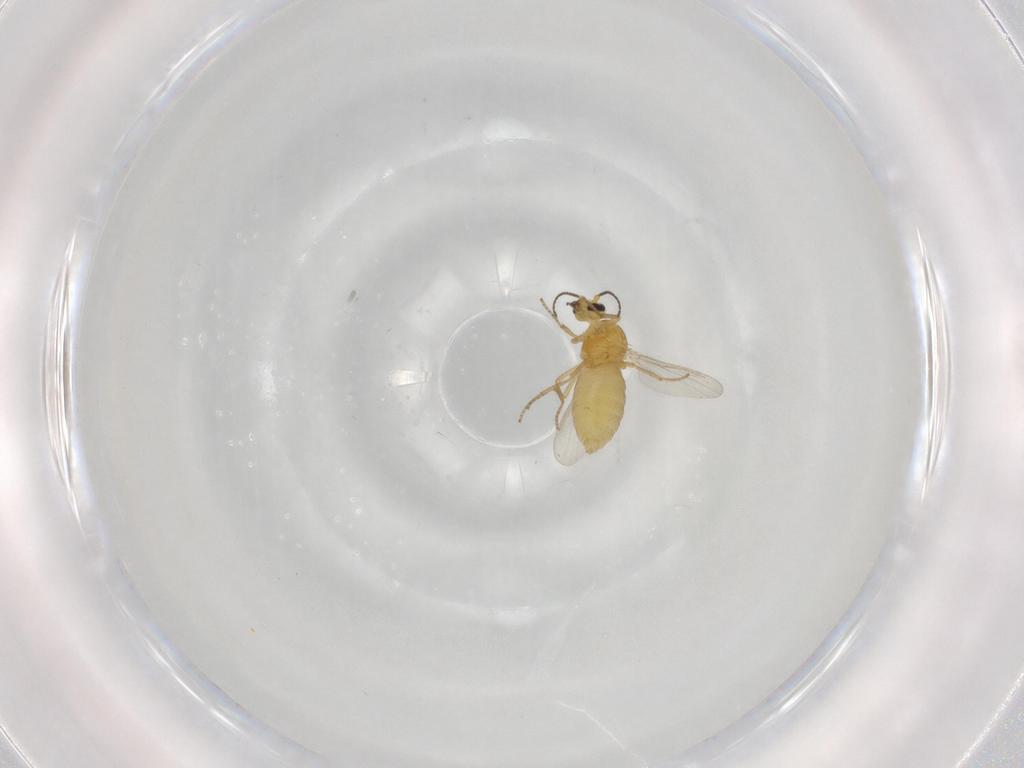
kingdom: Animalia
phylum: Arthropoda
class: Insecta
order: Diptera
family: Ceratopogonidae
